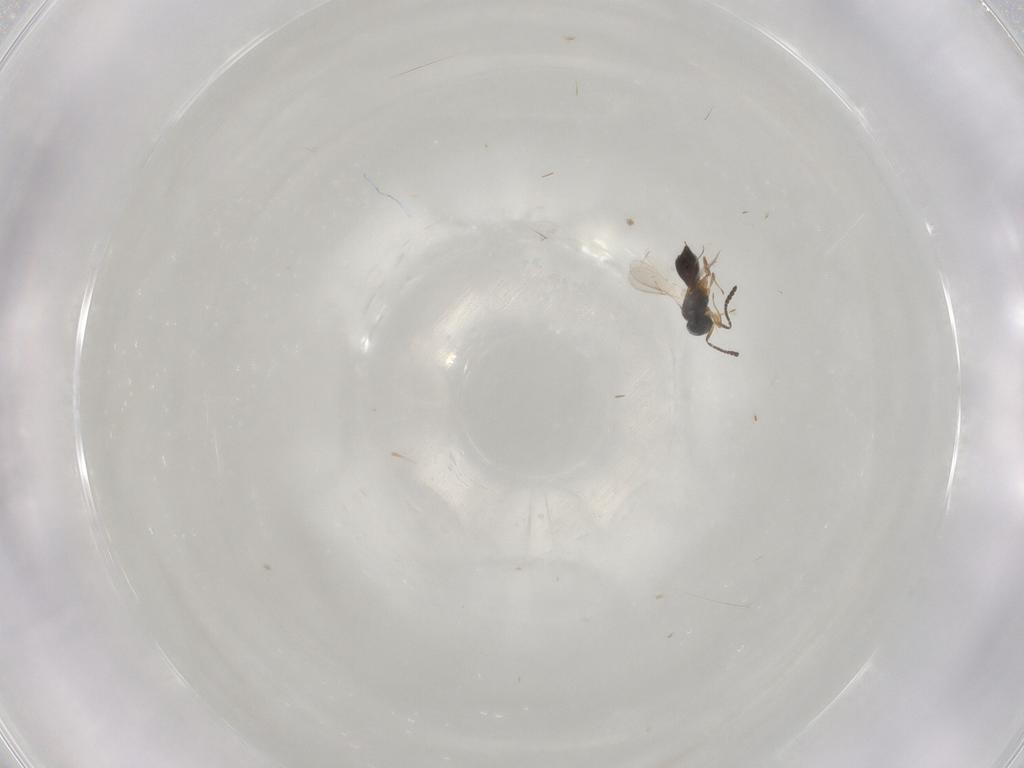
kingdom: Animalia
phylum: Arthropoda
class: Insecta
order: Hymenoptera
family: Scelionidae
